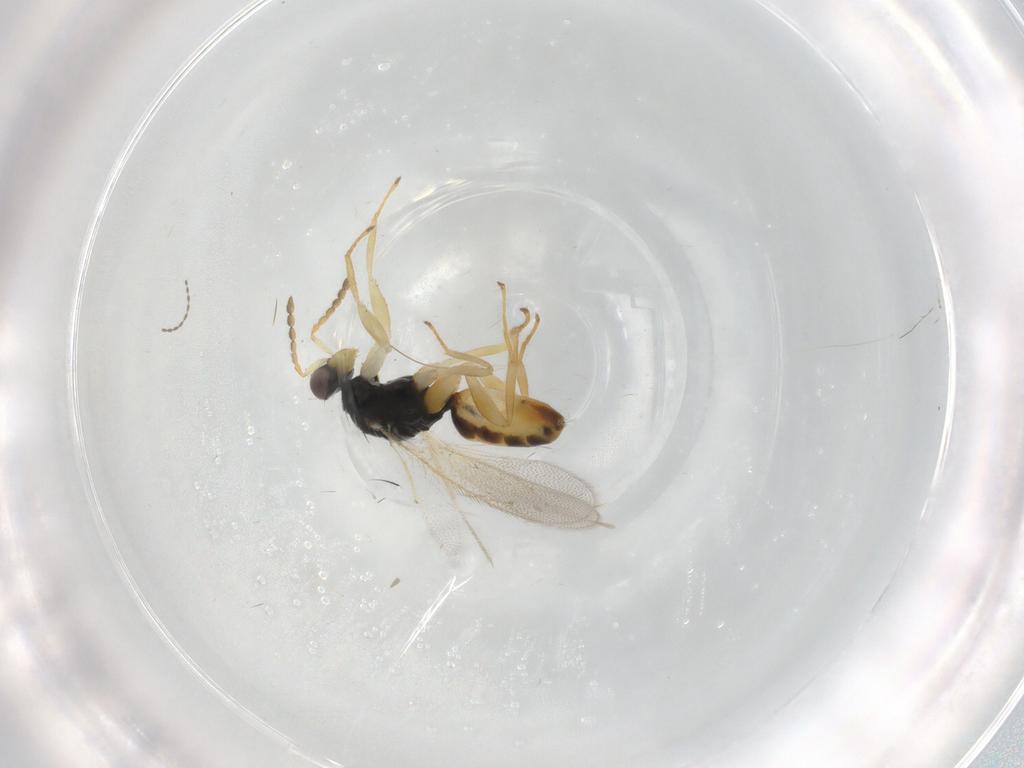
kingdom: Animalia
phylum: Arthropoda
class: Insecta
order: Hymenoptera
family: Eulophidae
